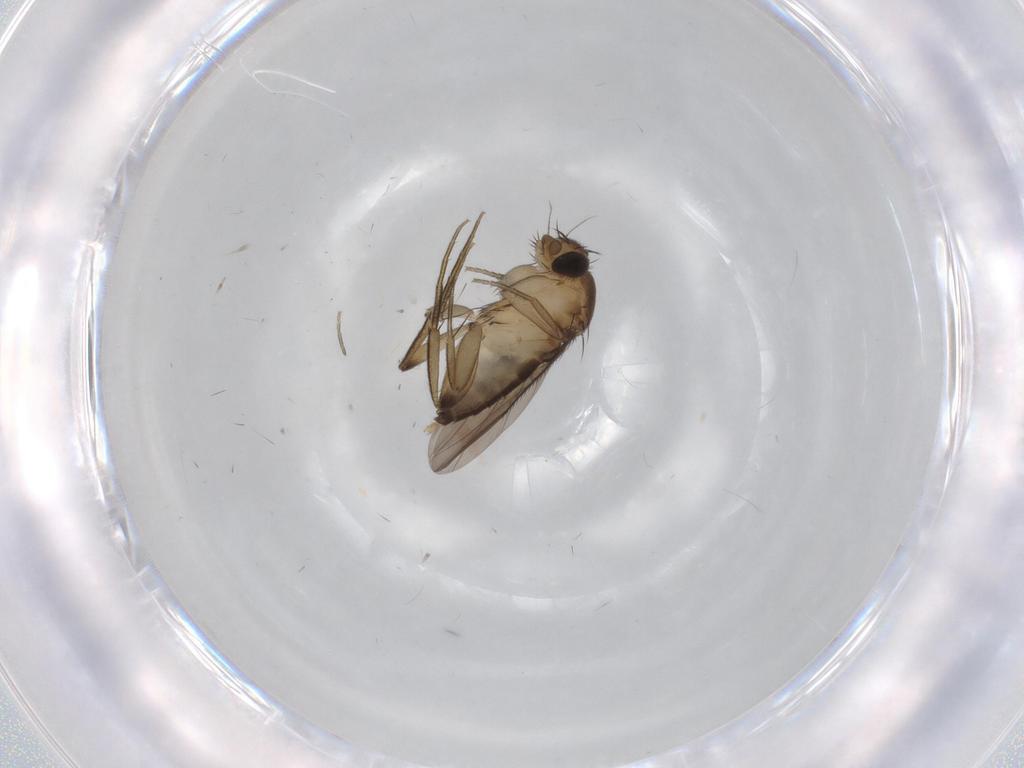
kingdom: Animalia
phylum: Arthropoda
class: Insecta
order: Diptera
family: Cecidomyiidae
